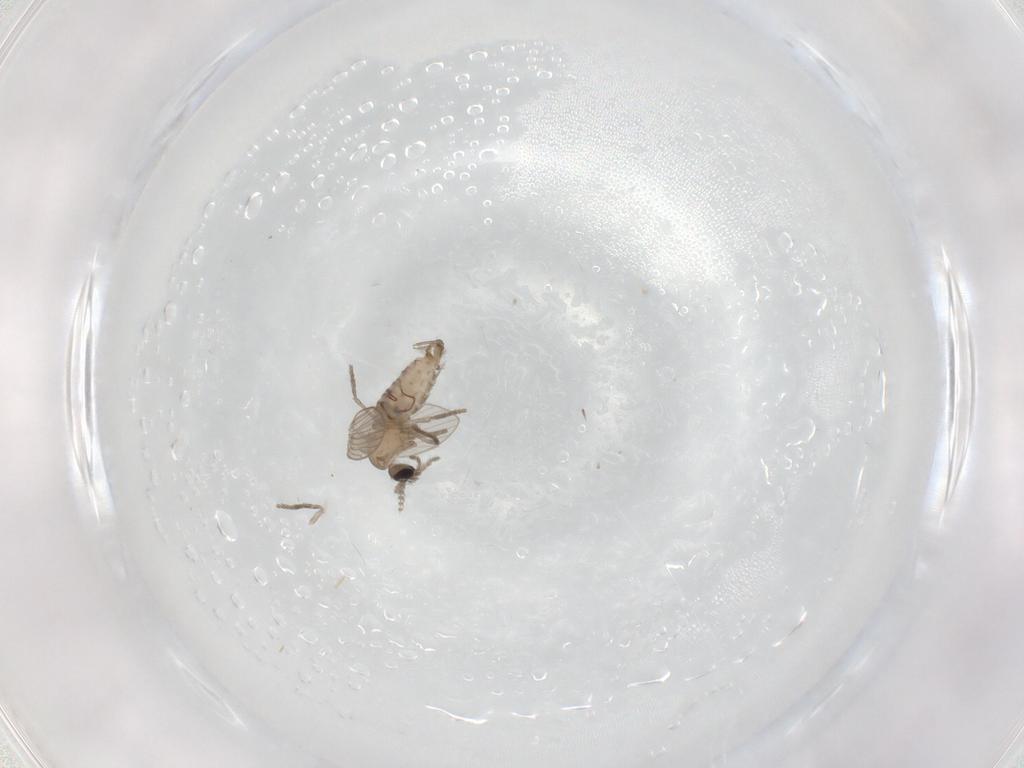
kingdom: Animalia
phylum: Arthropoda
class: Insecta
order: Diptera
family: Psychodidae
